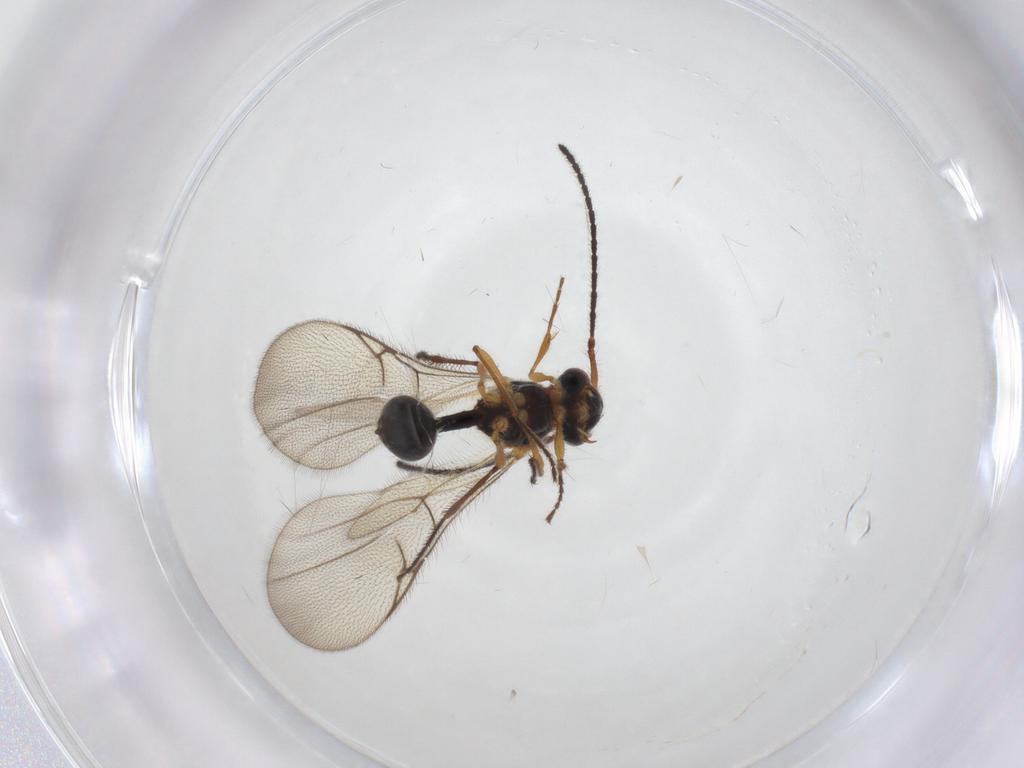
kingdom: Animalia
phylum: Arthropoda
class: Insecta
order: Hymenoptera
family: Diapriidae
